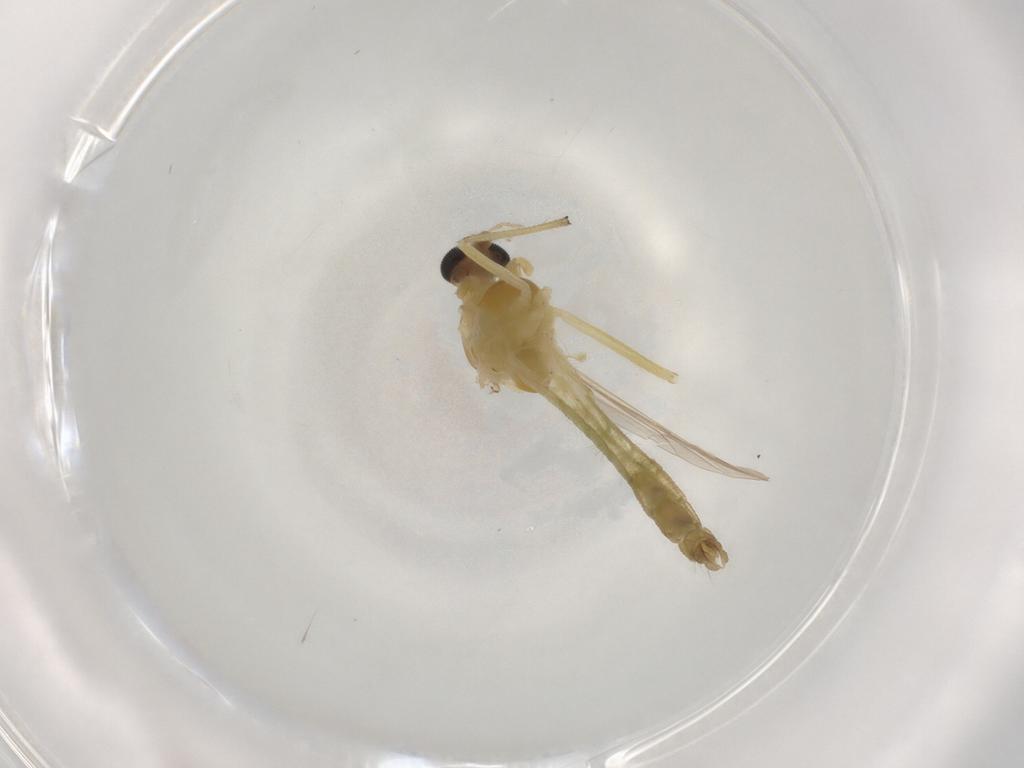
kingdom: Animalia
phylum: Arthropoda
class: Insecta
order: Diptera
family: Chironomidae
